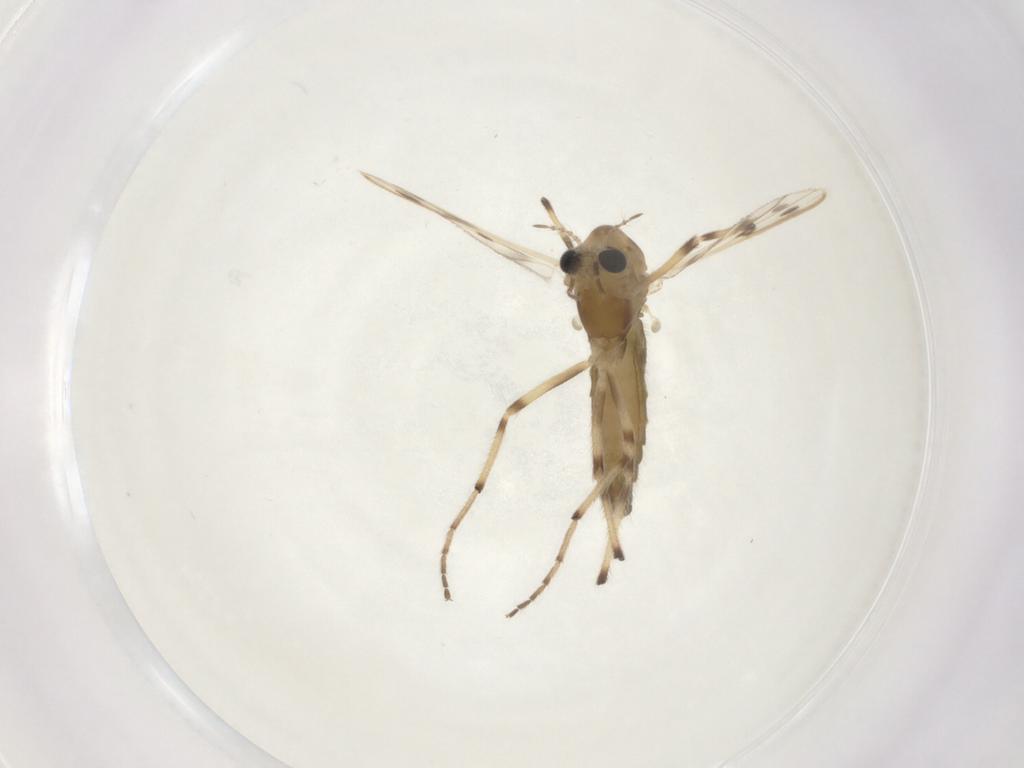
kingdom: Animalia
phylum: Arthropoda
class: Insecta
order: Diptera
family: Chironomidae
